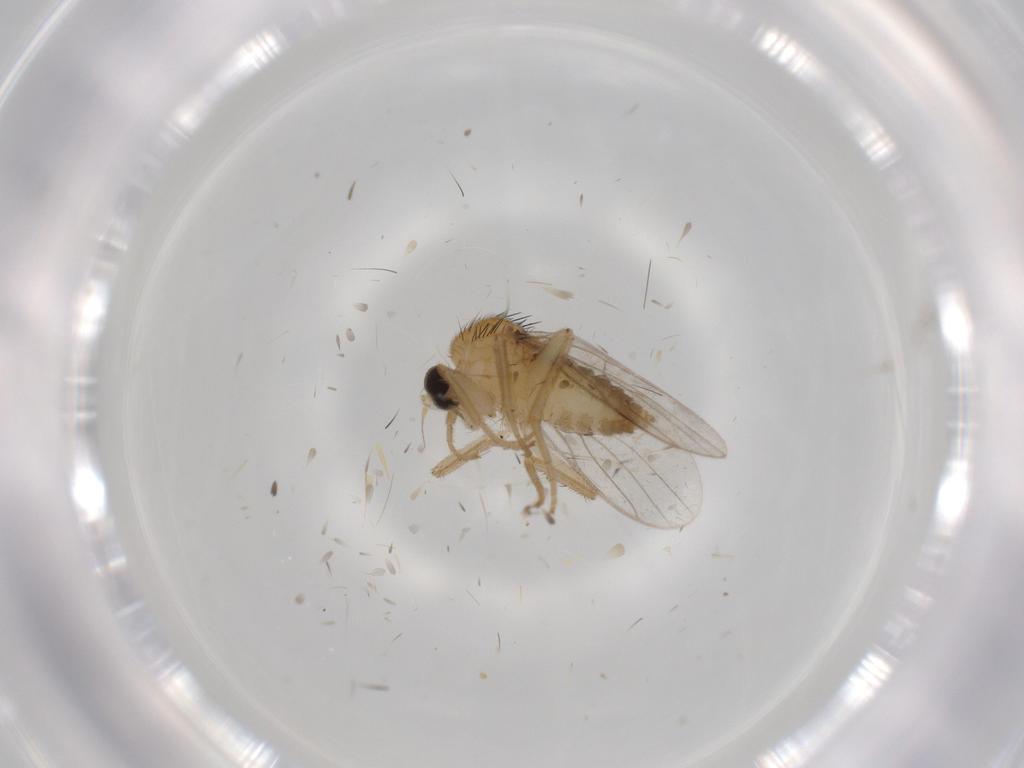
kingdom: Animalia
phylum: Arthropoda
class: Insecta
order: Diptera
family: Hybotidae
